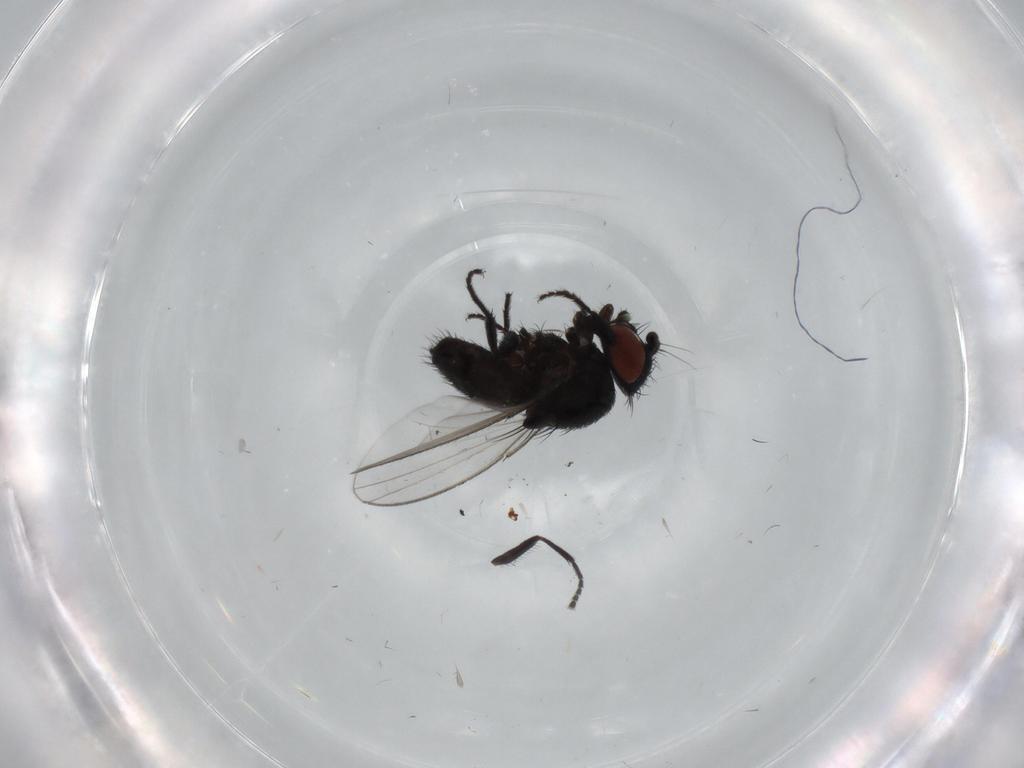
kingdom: Animalia
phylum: Arthropoda
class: Insecta
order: Diptera
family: Milichiidae
